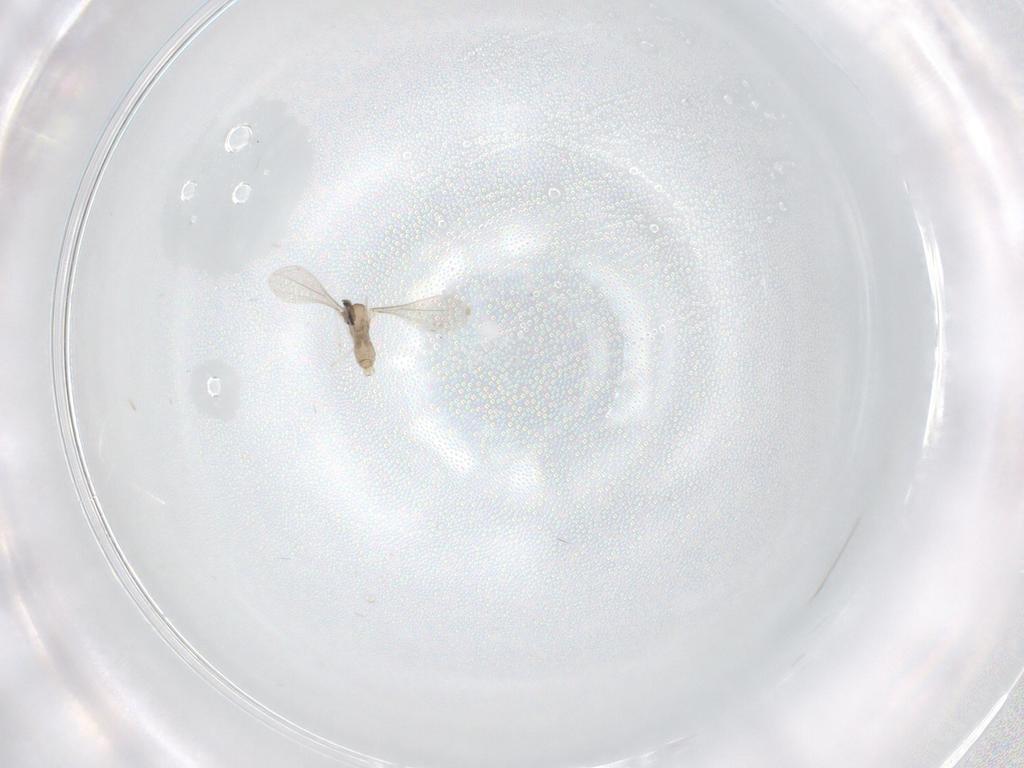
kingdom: Animalia
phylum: Arthropoda
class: Insecta
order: Diptera
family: Cecidomyiidae
